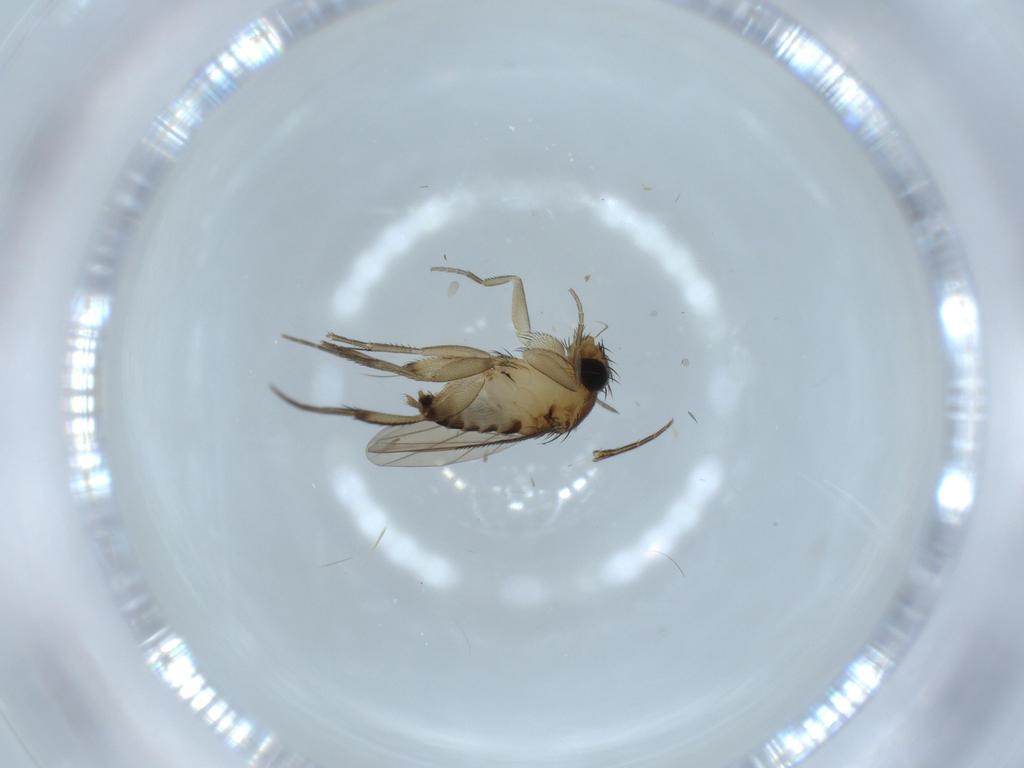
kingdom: Animalia
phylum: Arthropoda
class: Insecta
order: Diptera
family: Phoridae
